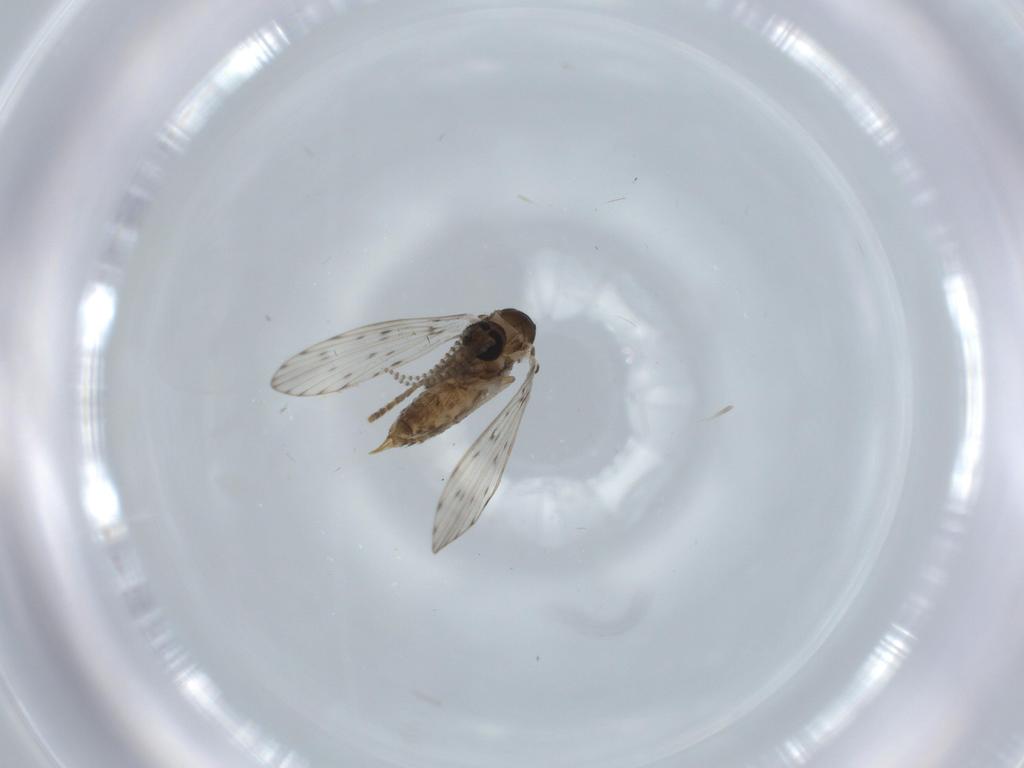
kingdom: Animalia
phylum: Arthropoda
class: Insecta
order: Diptera
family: Psychodidae
